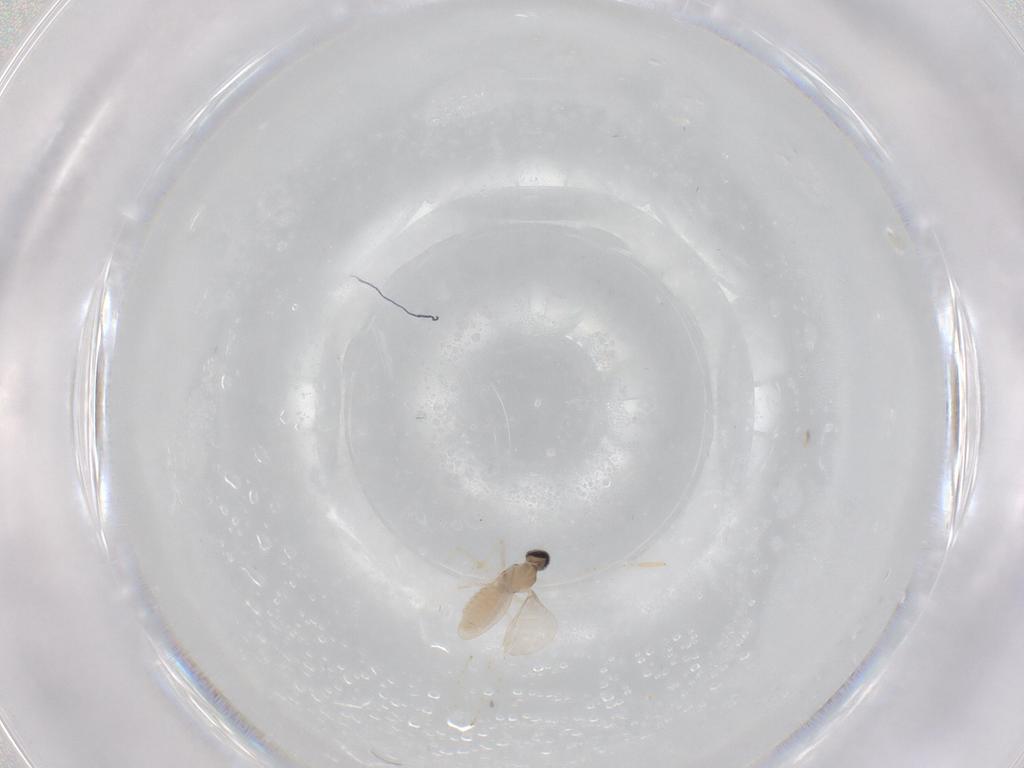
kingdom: Animalia
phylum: Arthropoda
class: Insecta
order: Diptera
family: Cecidomyiidae
